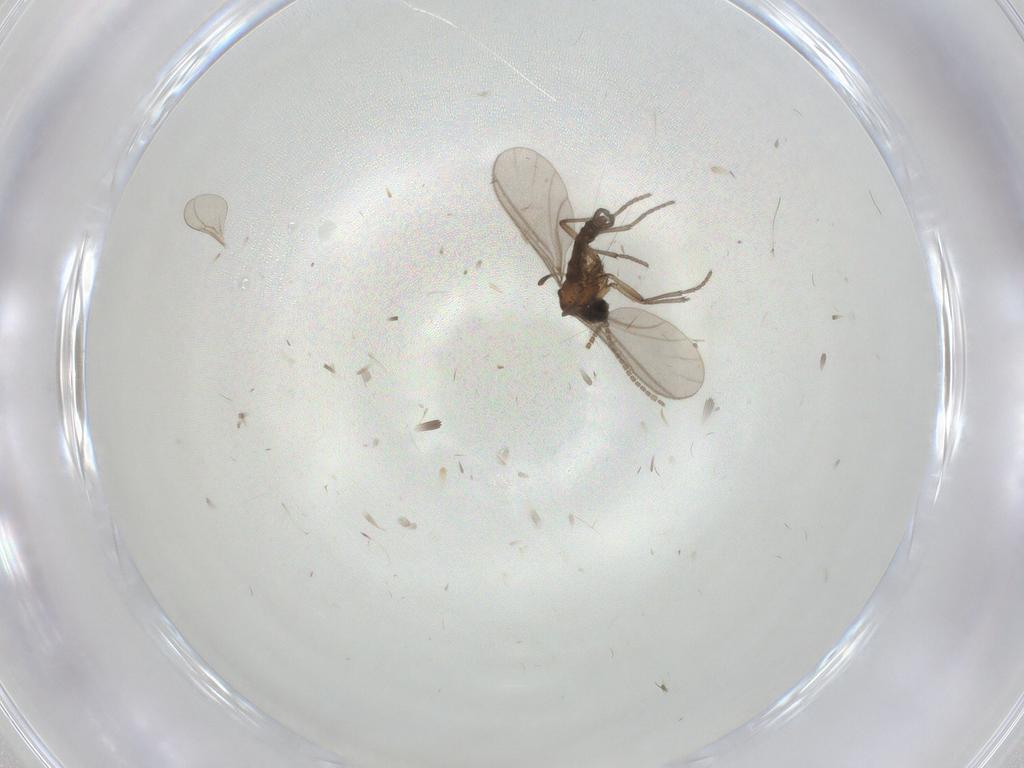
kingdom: Animalia
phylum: Arthropoda
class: Insecta
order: Diptera
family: Sciaridae
